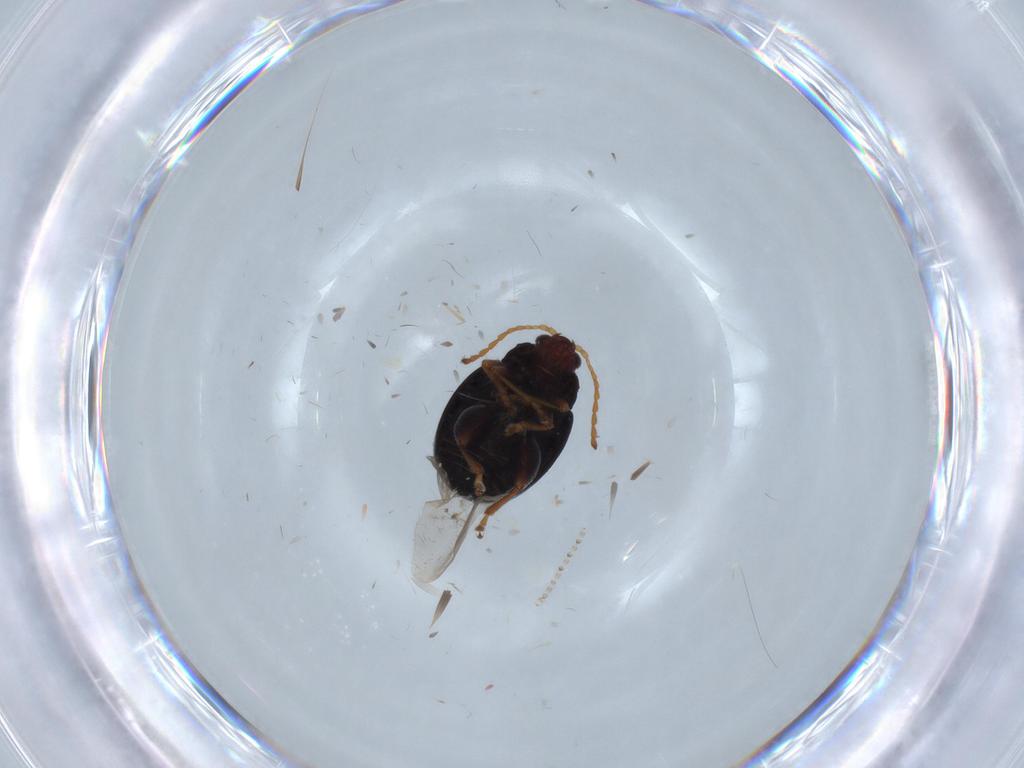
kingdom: Animalia
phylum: Arthropoda
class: Insecta
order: Coleoptera
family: Chrysomelidae
